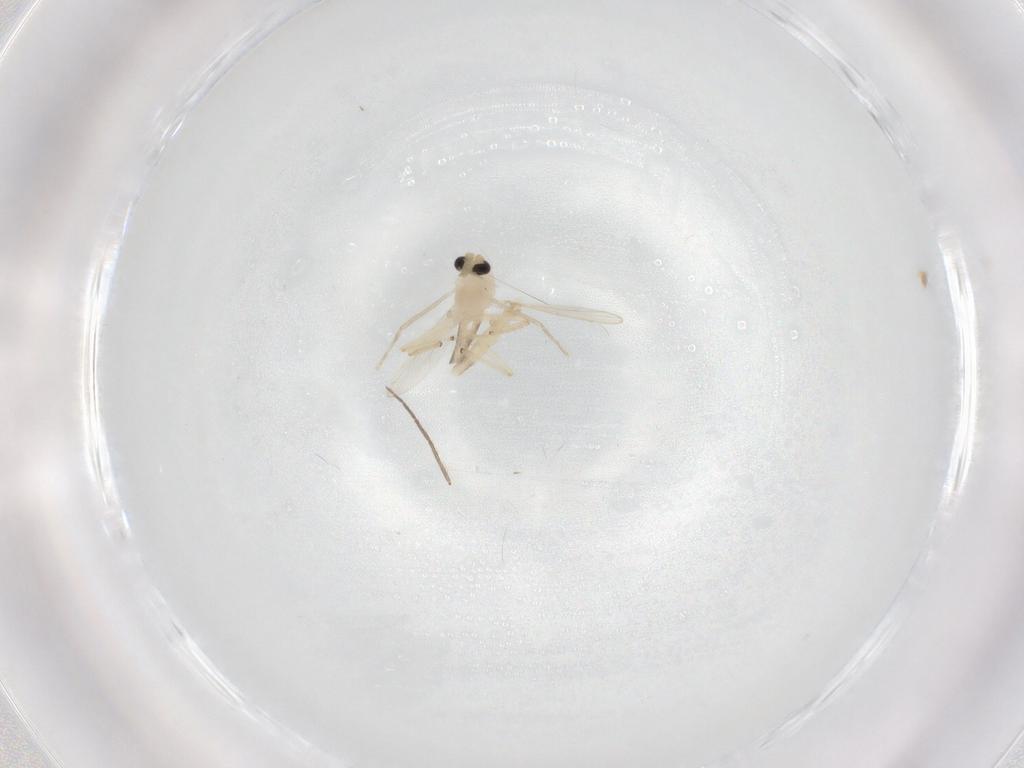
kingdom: Animalia
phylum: Arthropoda
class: Insecta
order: Diptera
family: Chironomidae
